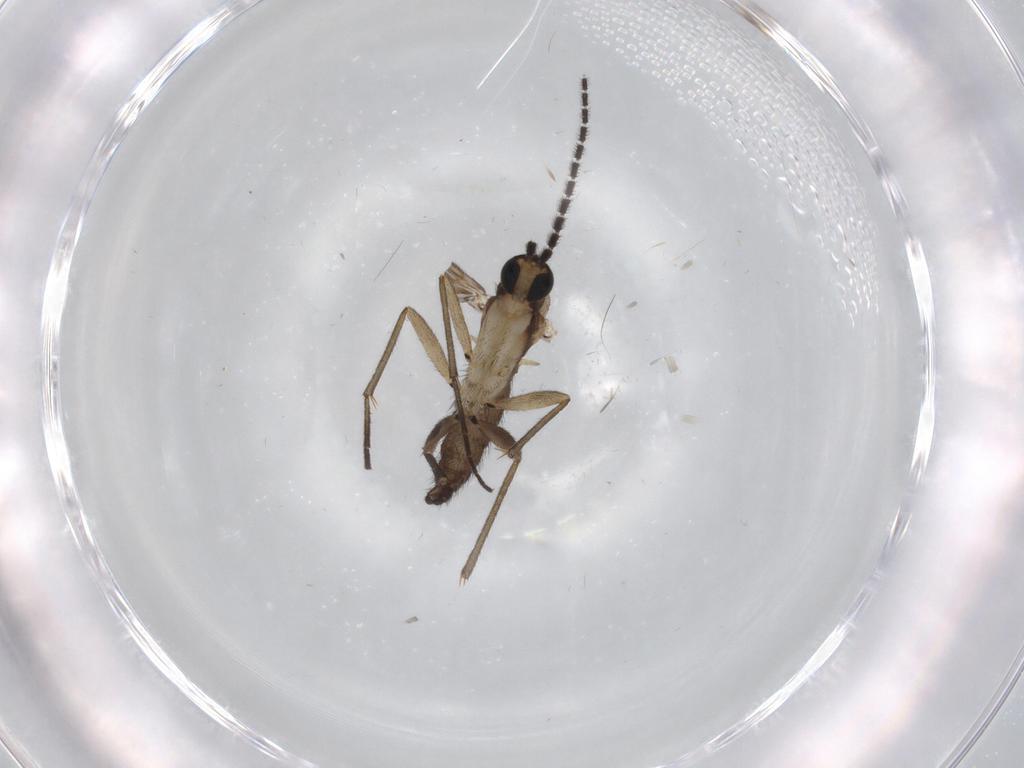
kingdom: Animalia
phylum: Arthropoda
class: Insecta
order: Diptera
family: Sciaridae
